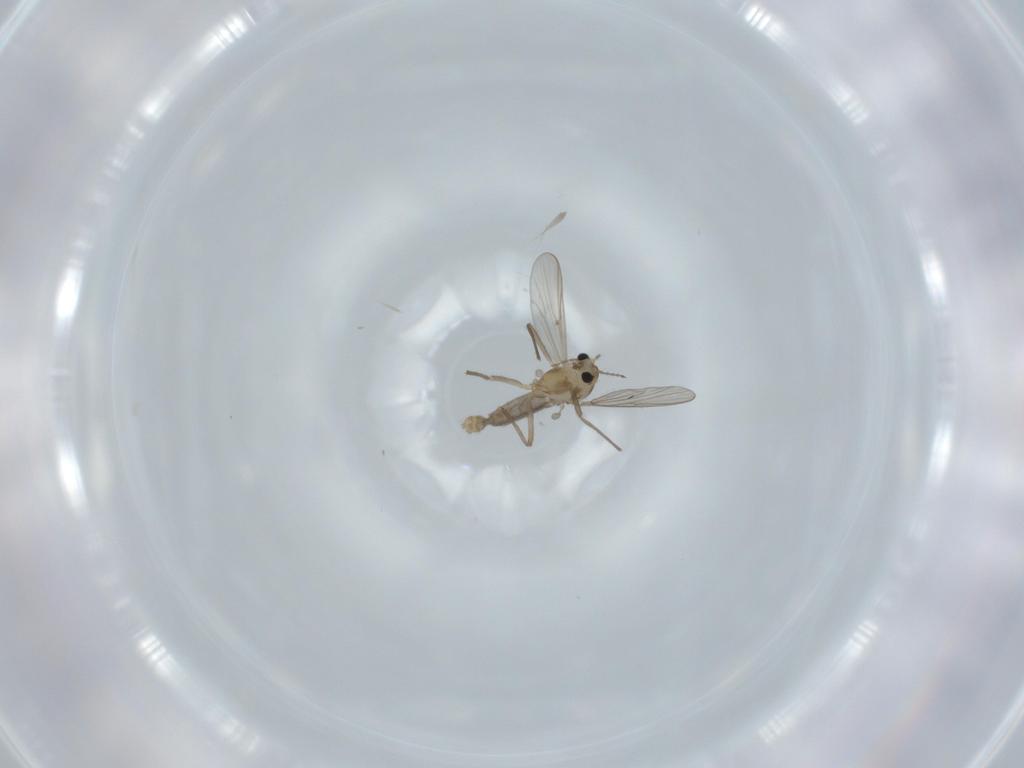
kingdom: Animalia
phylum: Arthropoda
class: Insecta
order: Diptera
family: Chironomidae
